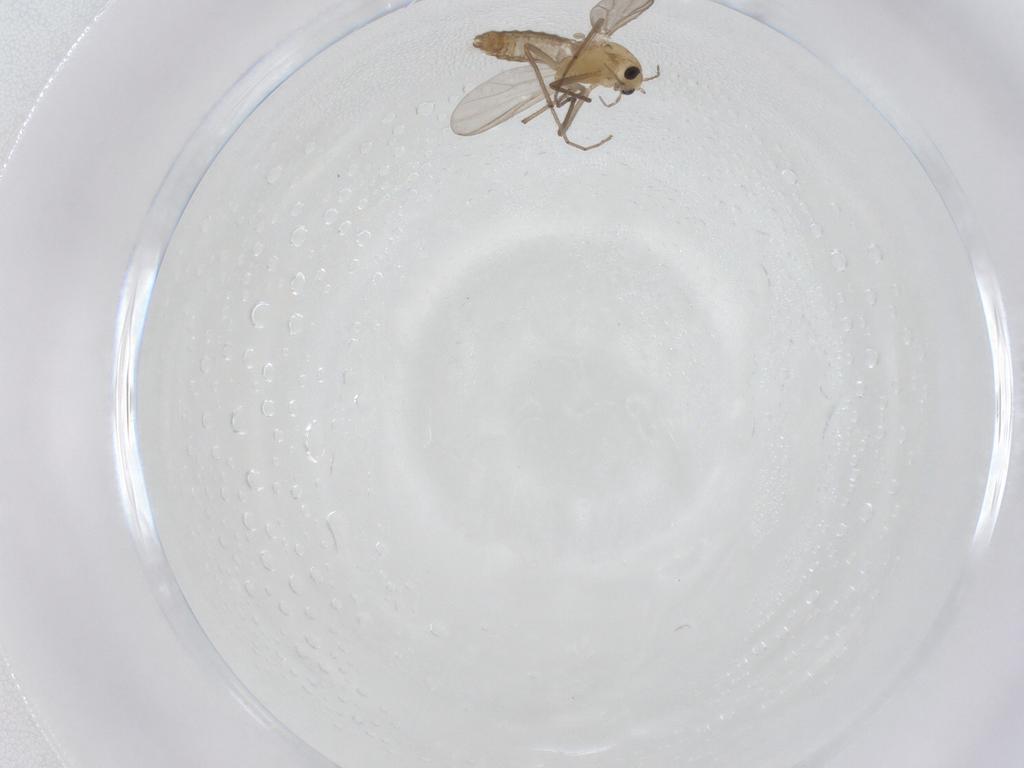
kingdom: Animalia
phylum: Arthropoda
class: Insecta
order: Diptera
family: Chironomidae
